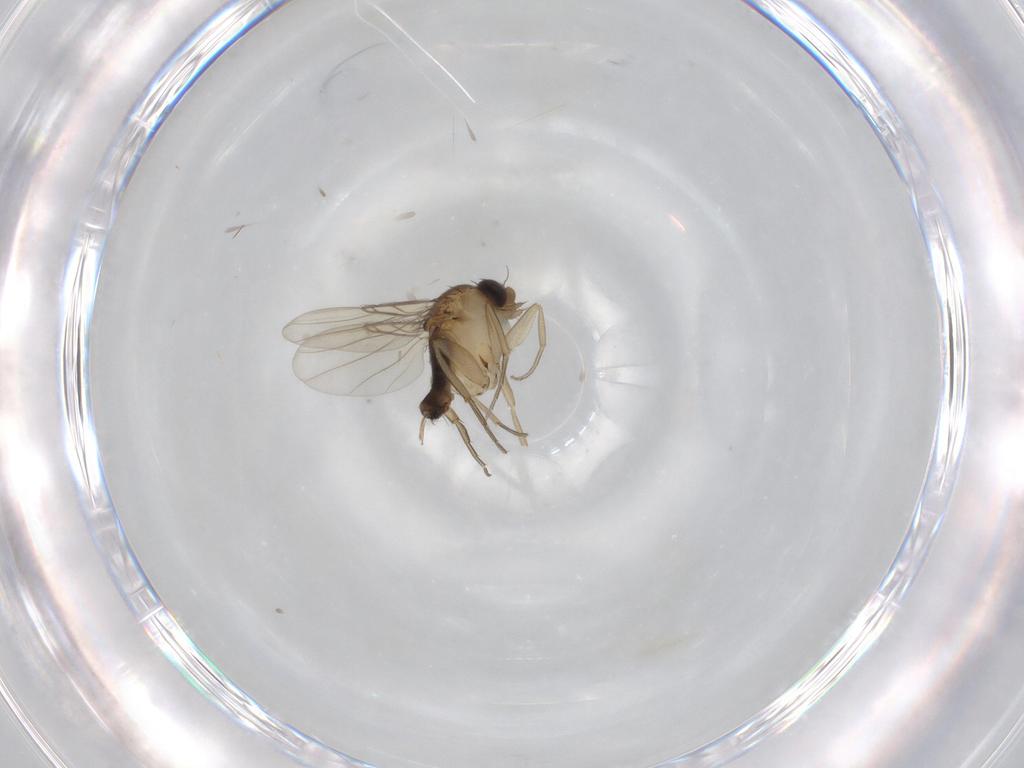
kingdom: Animalia
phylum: Arthropoda
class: Insecta
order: Diptera
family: Phoridae
